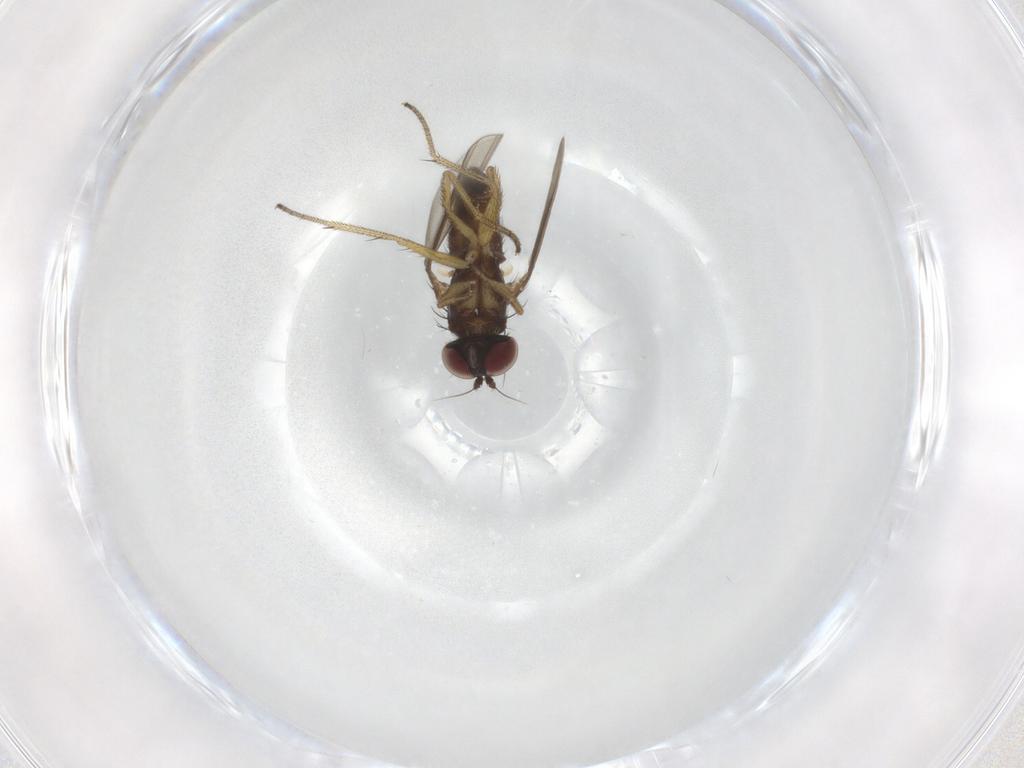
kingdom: Animalia
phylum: Arthropoda
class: Insecta
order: Diptera
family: Dolichopodidae
